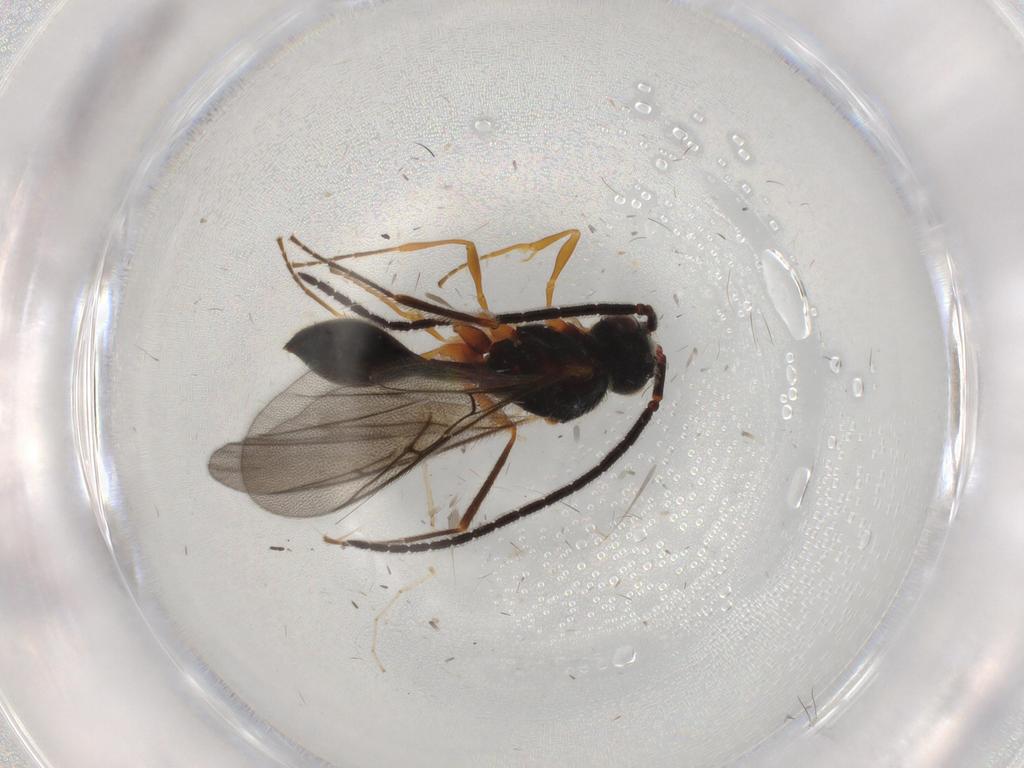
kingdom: Animalia
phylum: Arthropoda
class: Insecta
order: Hymenoptera
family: Diapriidae
